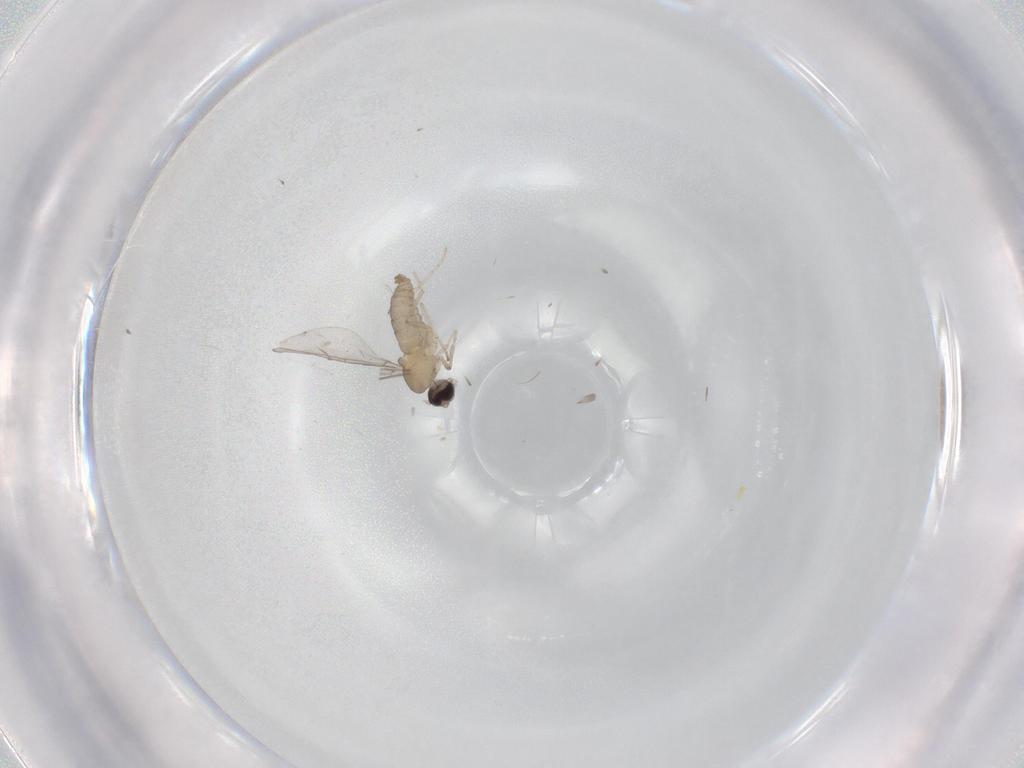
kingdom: Animalia
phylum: Arthropoda
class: Insecta
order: Diptera
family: Cecidomyiidae
